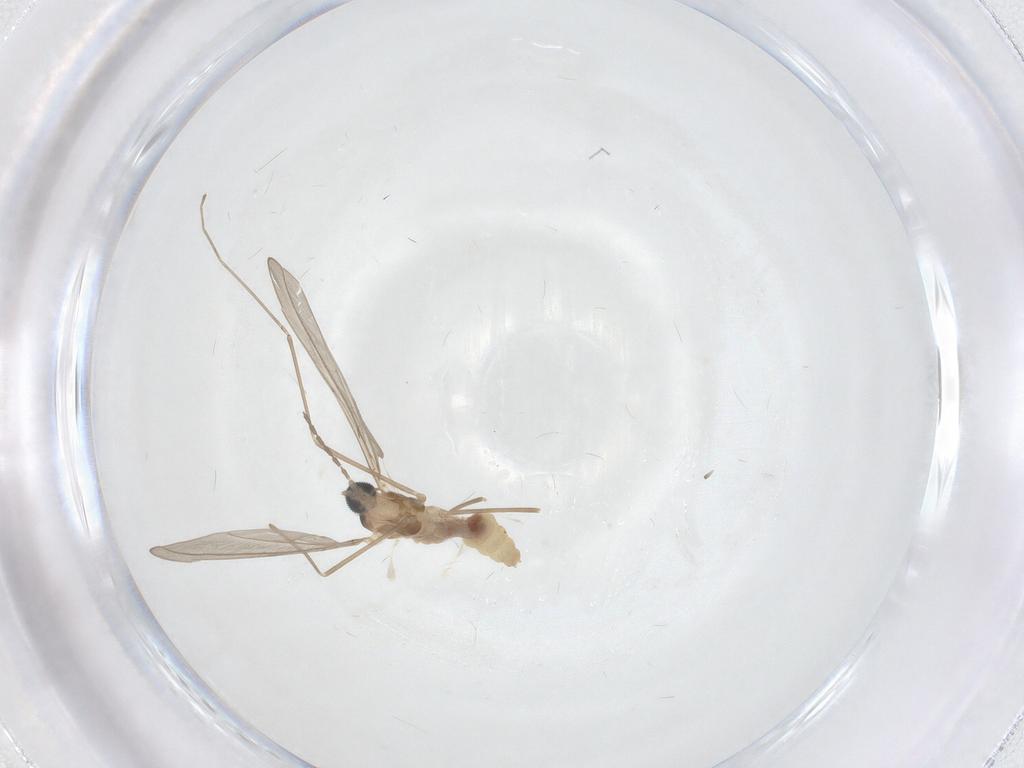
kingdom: Animalia
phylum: Arthropoda
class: Insecta
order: Diptera
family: Cecidomyiidae
